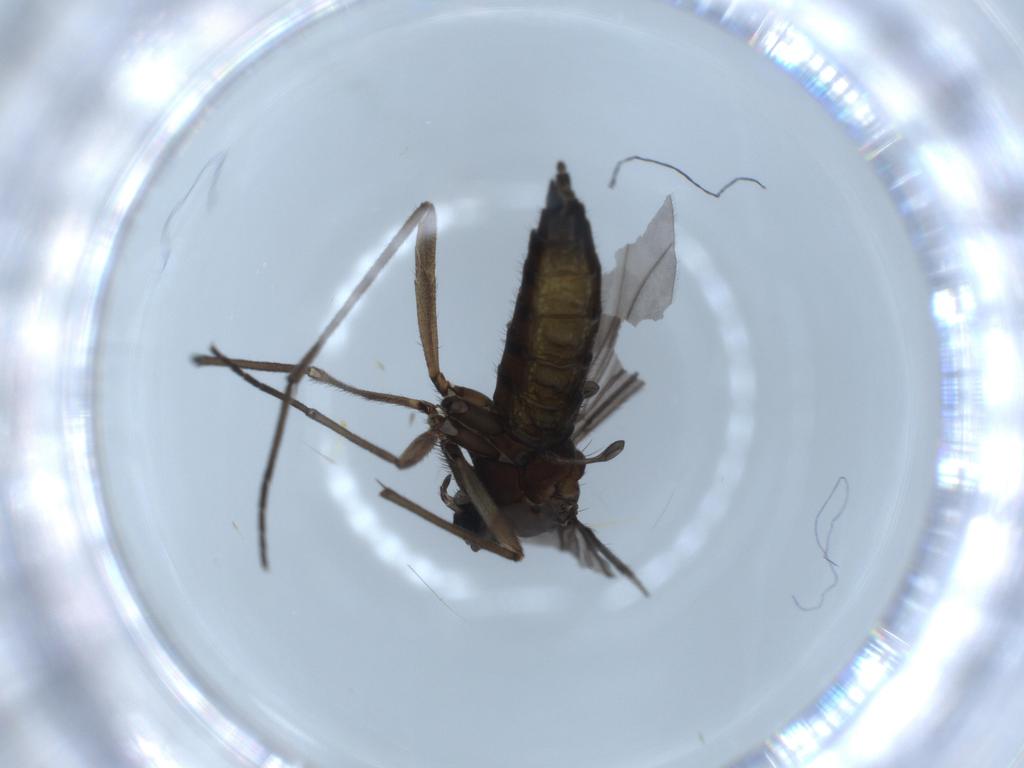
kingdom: Animalia
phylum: Arthropoda
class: Insecta
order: Diptera
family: Sciaridae
